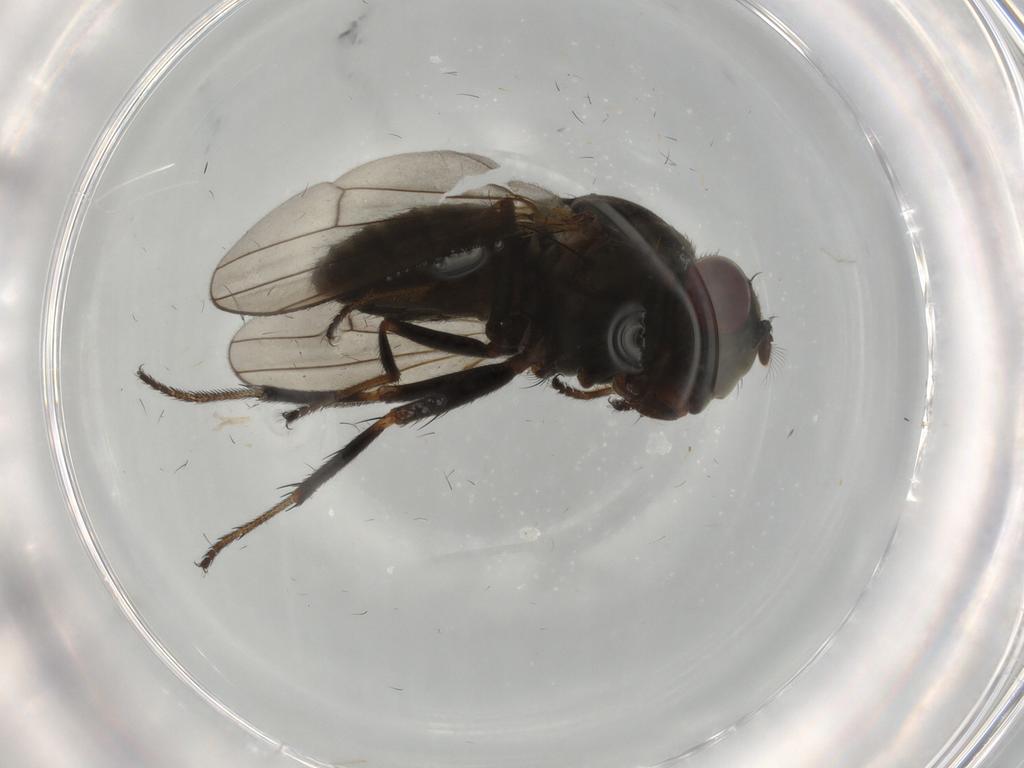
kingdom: Animalia
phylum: Arthropoda
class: Insecta
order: Diptera
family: Ephydridae
